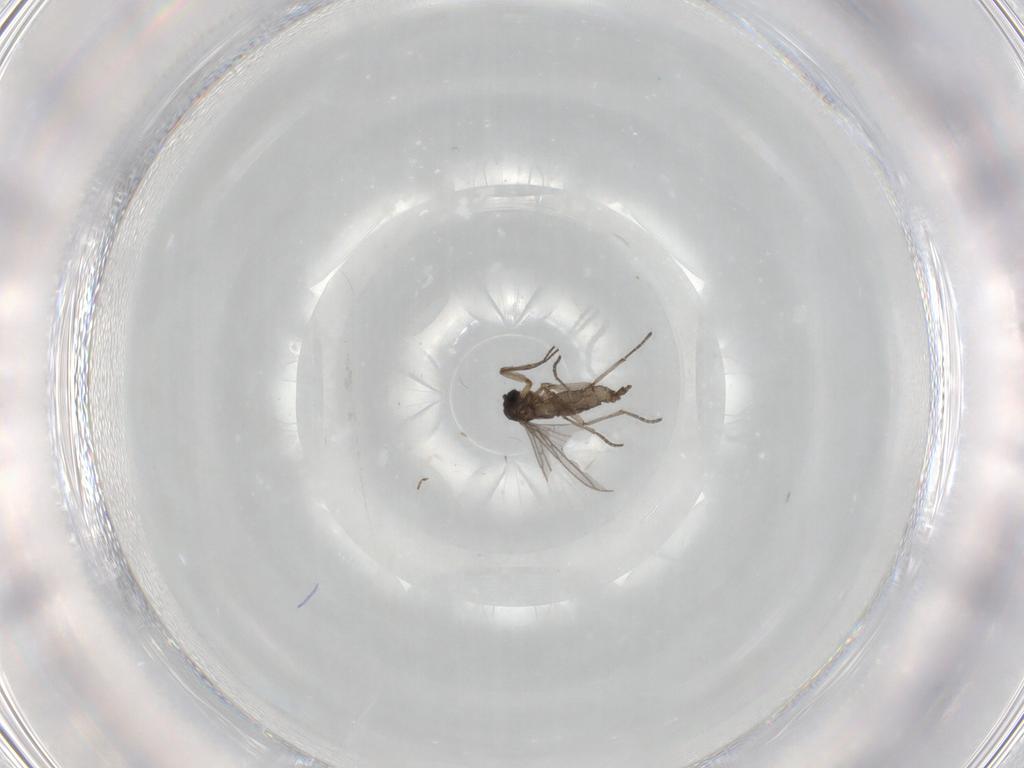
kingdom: Animalia
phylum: Arthropoda
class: Insecta
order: Diptera
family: Ceratopogonidae
